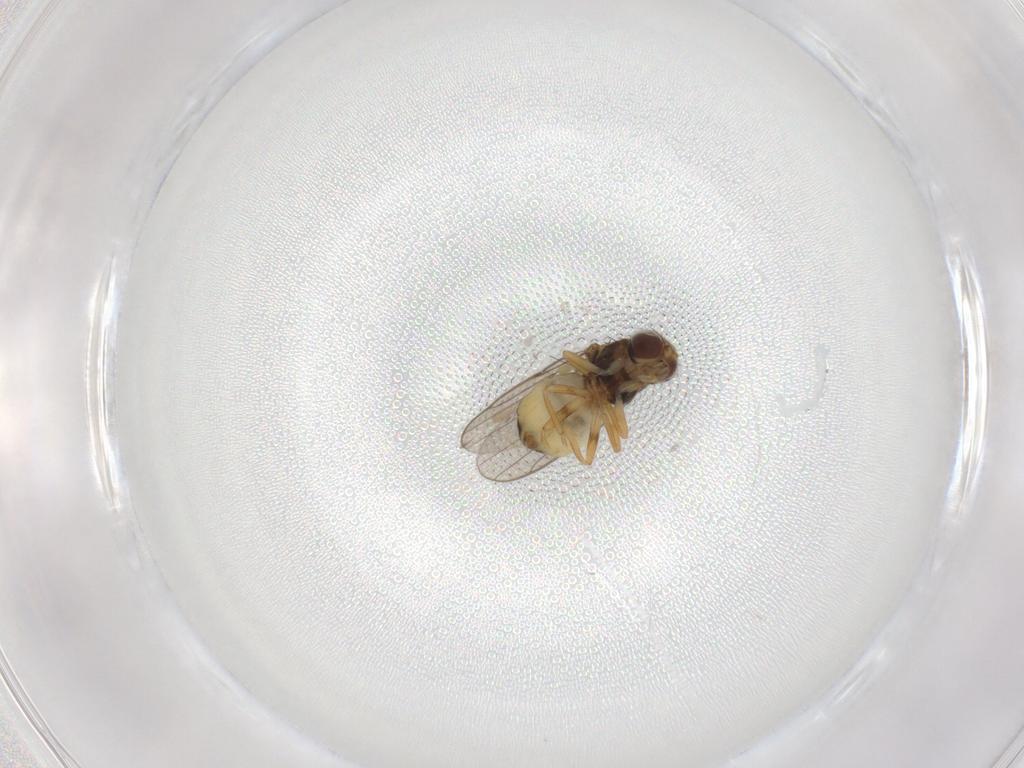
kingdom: Animalia
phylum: Arthropoda
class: Insecta
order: Diptera
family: Chloropidae
